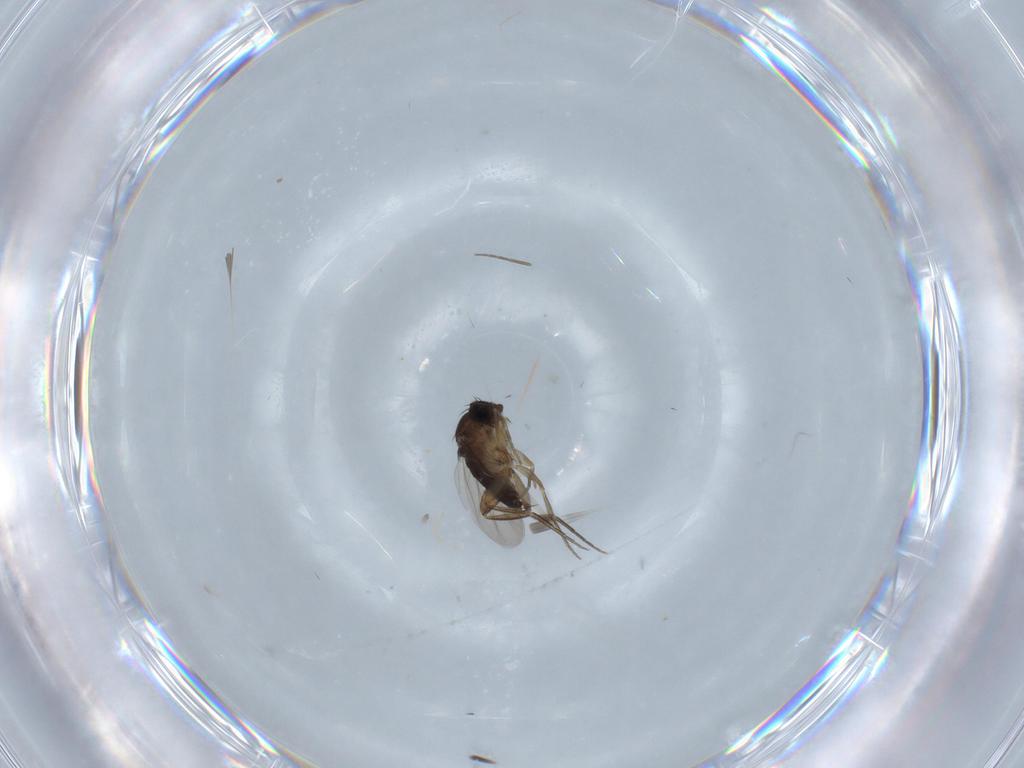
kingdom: Animalia
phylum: Arthropoda
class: Insecta
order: Diptera
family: Phoridae
